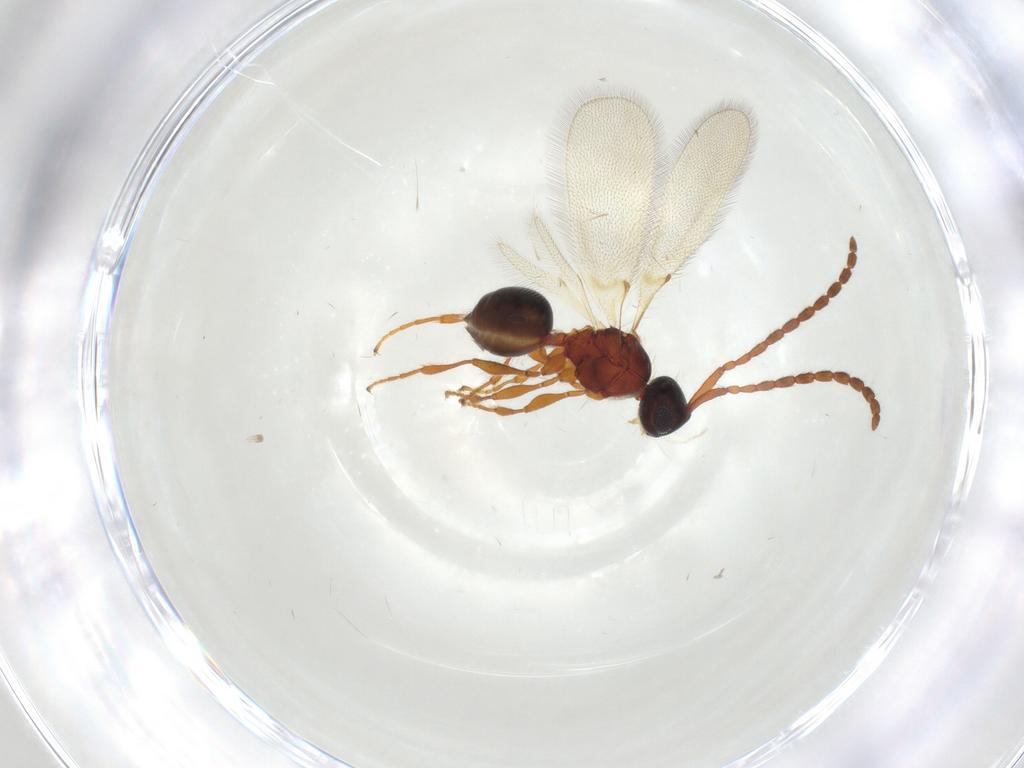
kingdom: Animalia
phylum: Arthropoda
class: Insecta
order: Hymenoptera
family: Diapriidae
